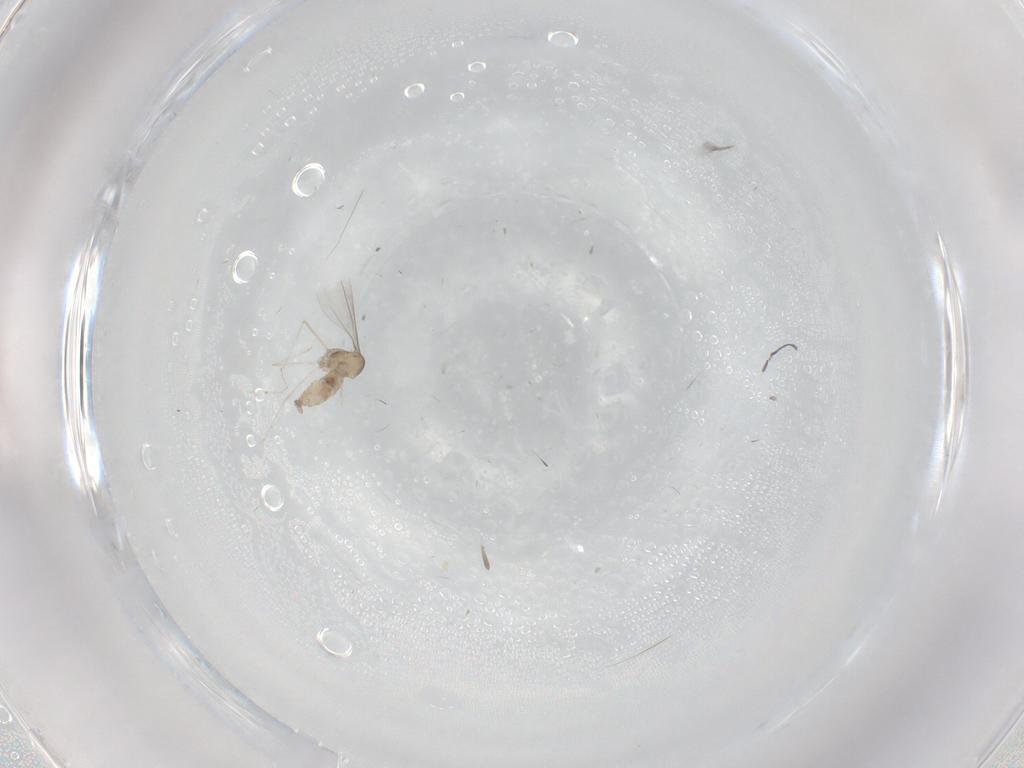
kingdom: Animalia
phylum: Arthropoda
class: Insecta
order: Diptera
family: Cecidomyiidae
